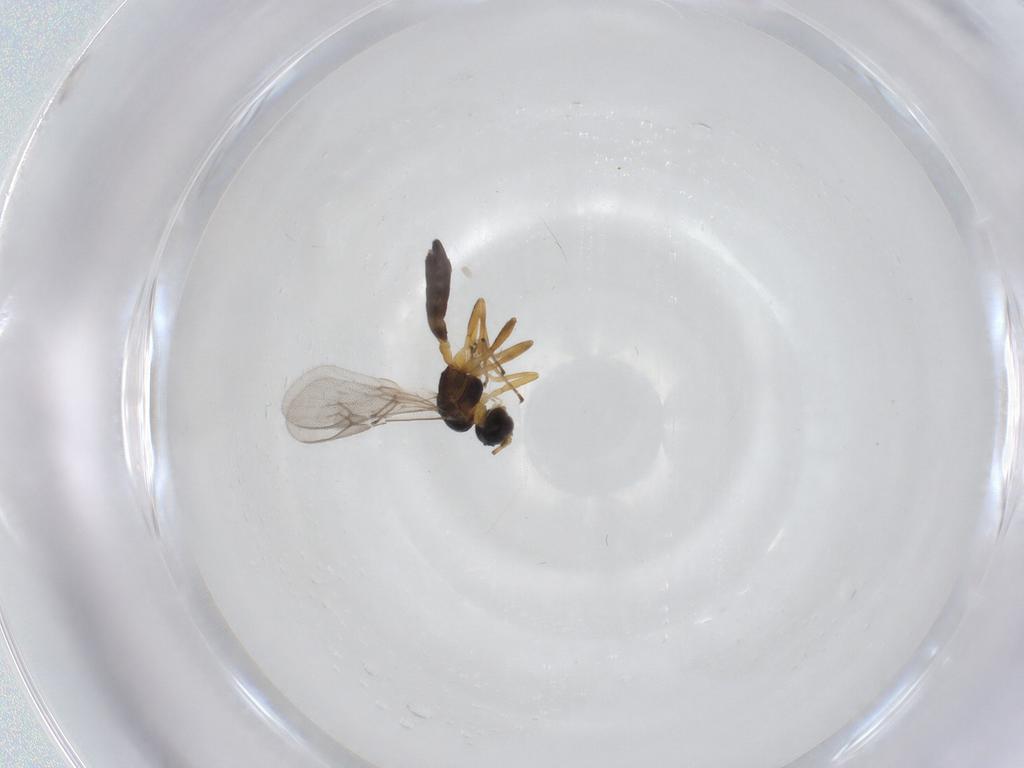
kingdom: Animalia
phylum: Arthropoda
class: Insecta
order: Hymenoptera
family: Braconidae
